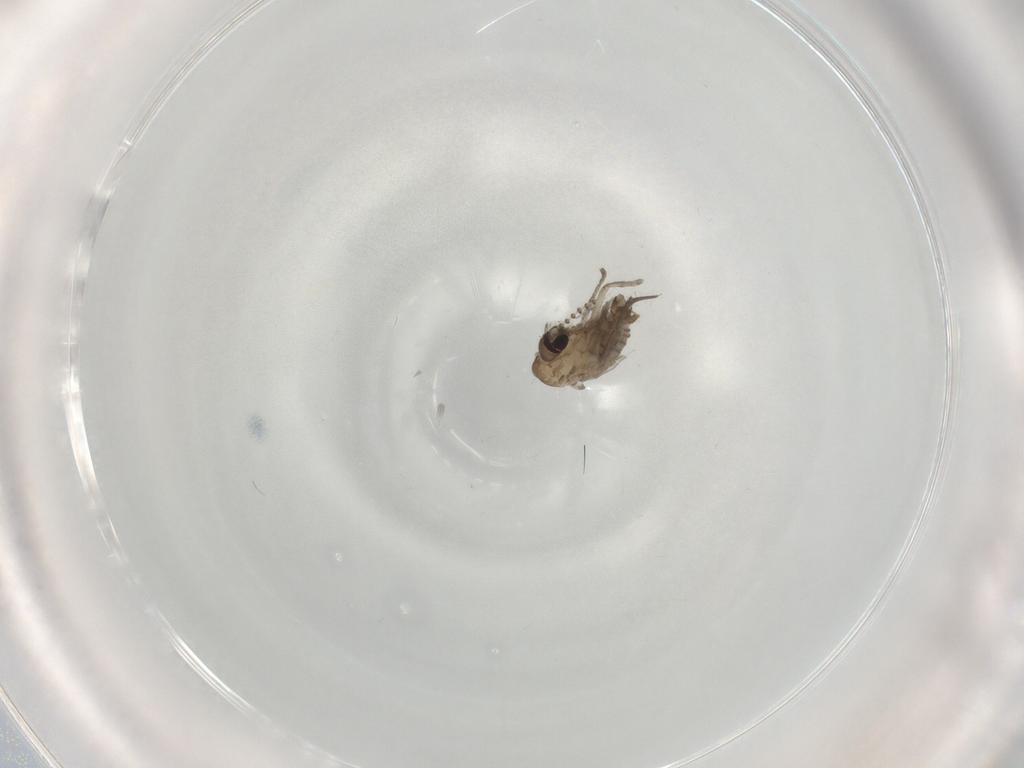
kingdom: Animalia
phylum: Arthropoda
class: Insecta
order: Diptera
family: Psychodidae
